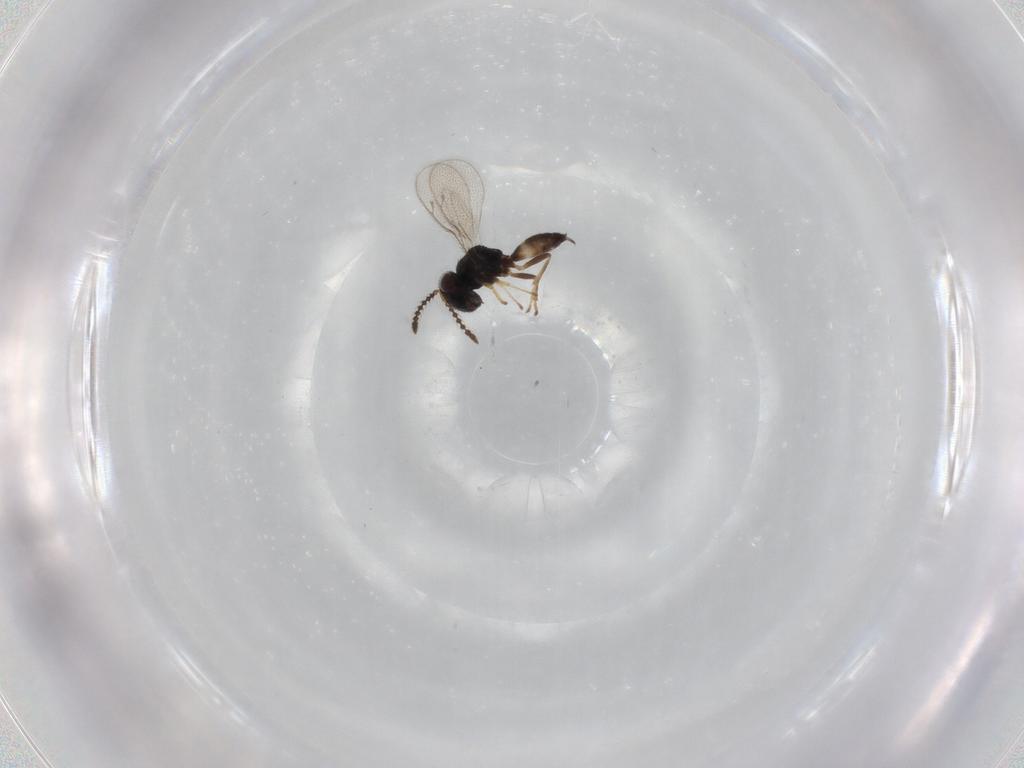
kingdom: Animalia
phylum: Arthropoda
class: Insecta
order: Hymenoptera
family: Pteromalidae
